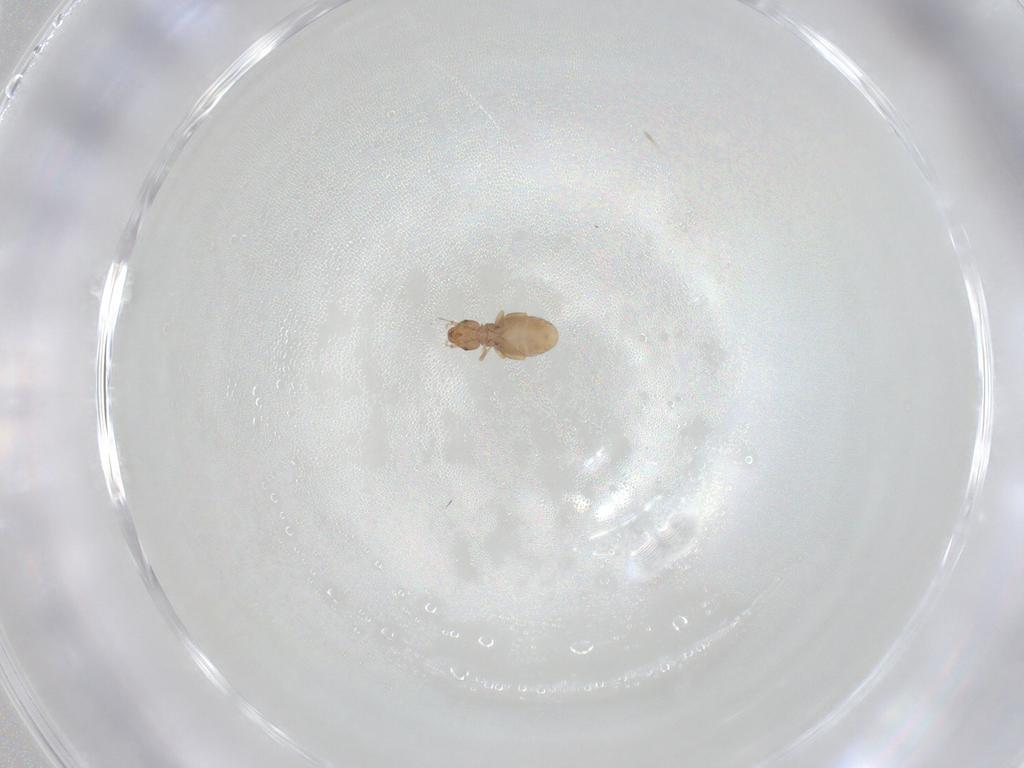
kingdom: Animalia
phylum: Arthropoda
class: Insecta
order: Psocodea
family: Liposcelididae
